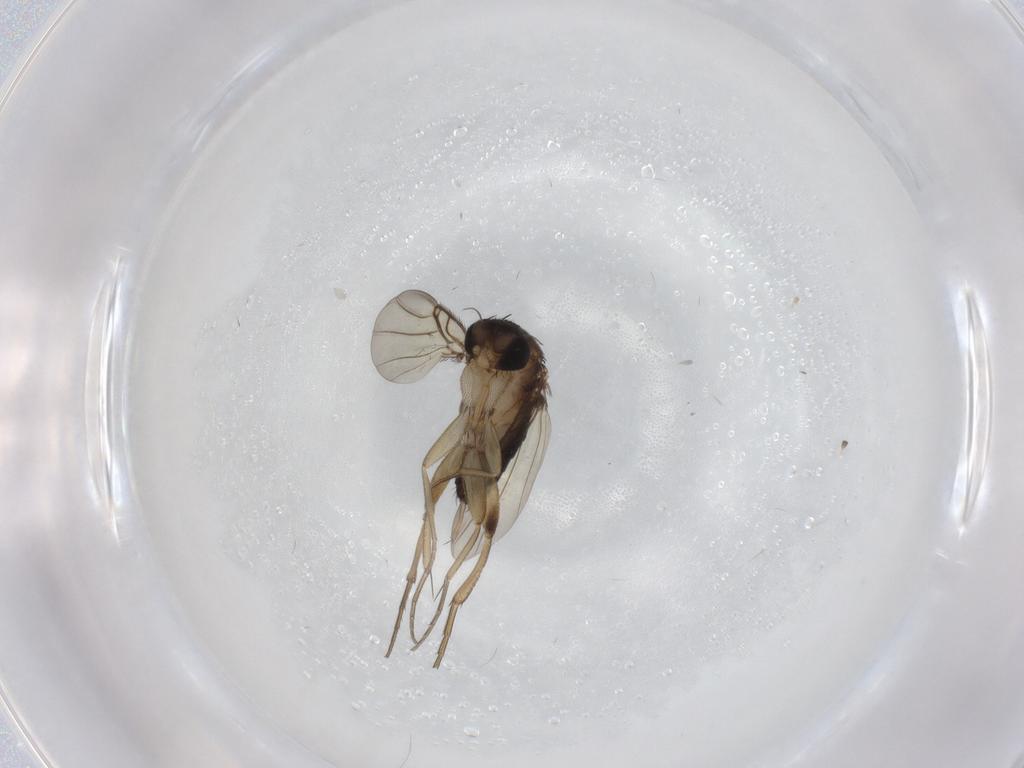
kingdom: Animalia
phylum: Arthropoda
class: Insecta
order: Diptera
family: Phoridae
